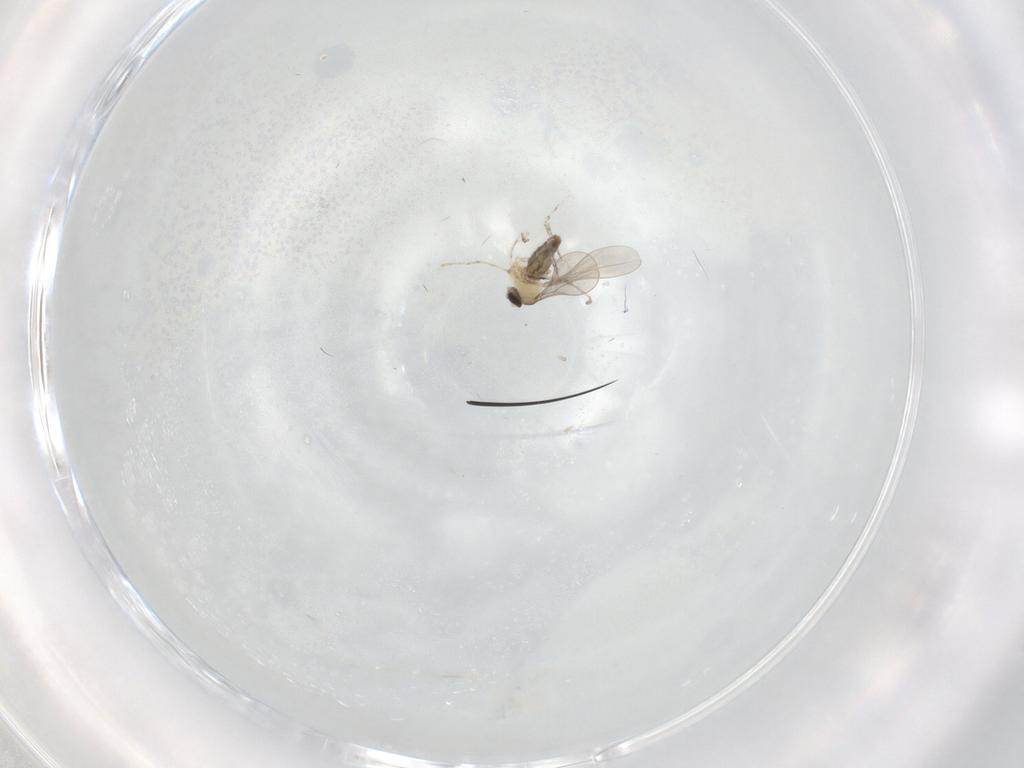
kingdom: Animalia
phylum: Arthropoda
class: Insecta
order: Diptera
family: Cecidomyiidae
